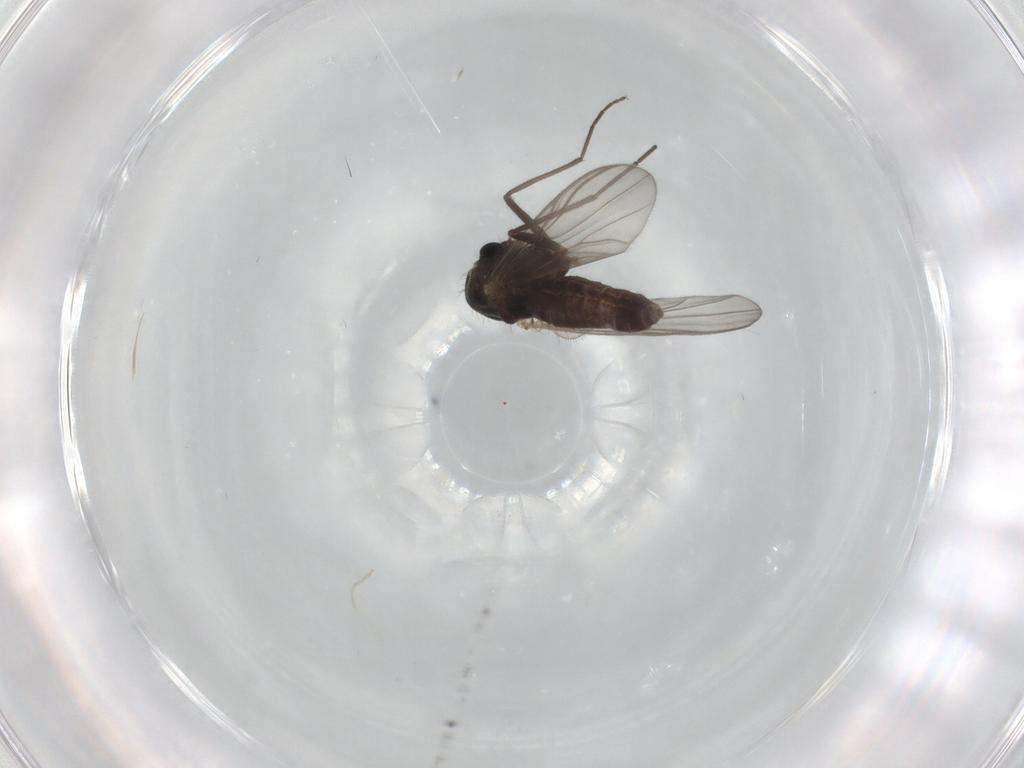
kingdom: Animalia
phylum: Arthropoda
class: Insecta
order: Diptera
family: Chironomidae
